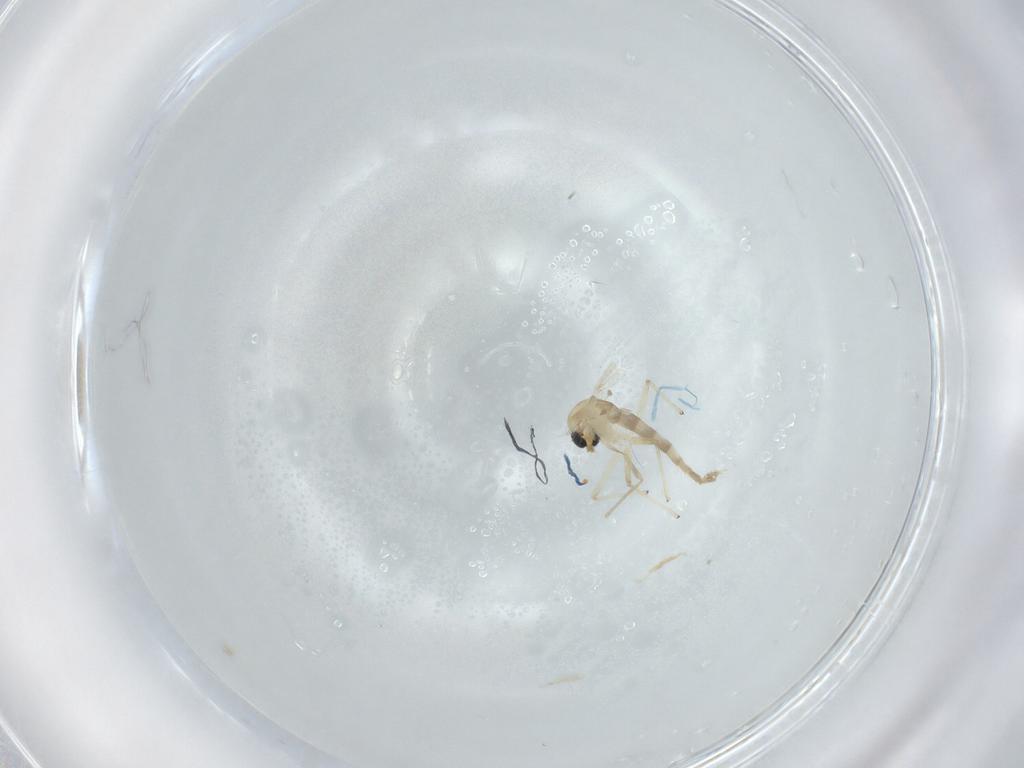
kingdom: Animalia
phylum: Arthropoda
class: Insecta
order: Diptera
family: Chironomidae
